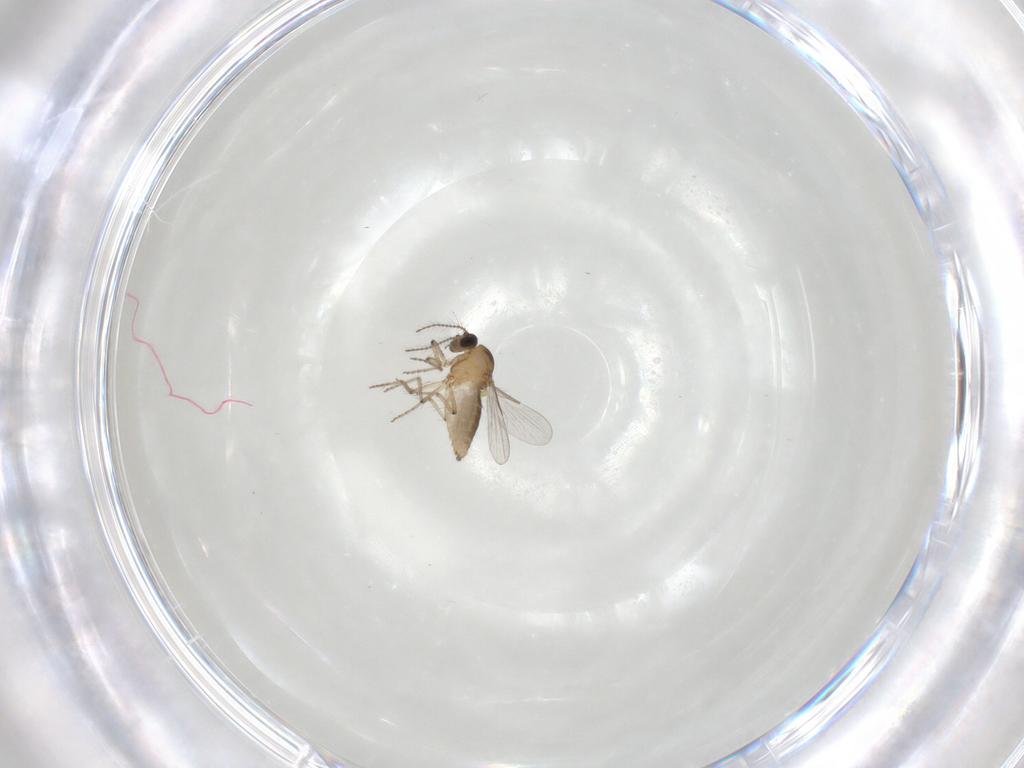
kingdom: Animalia
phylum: Arthropoda
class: Insecta
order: Diptera
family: Ceratopogonidae
